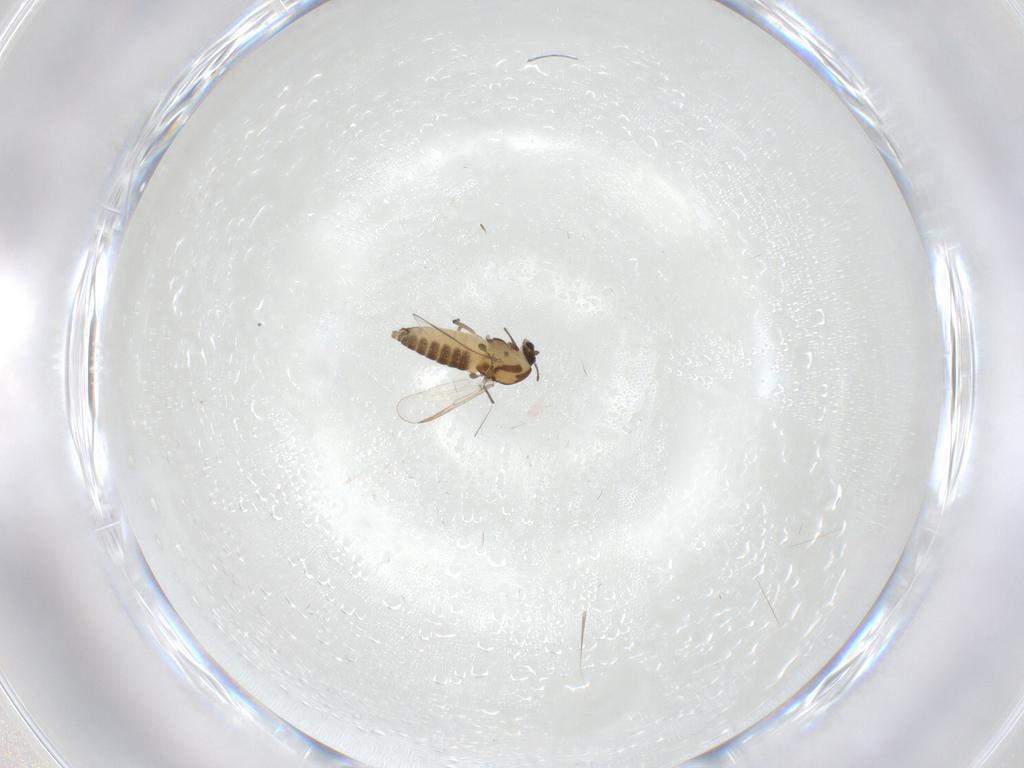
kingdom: Animalia
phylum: Arthropoda
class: Insecta
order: Diptera
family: Chironomidae
